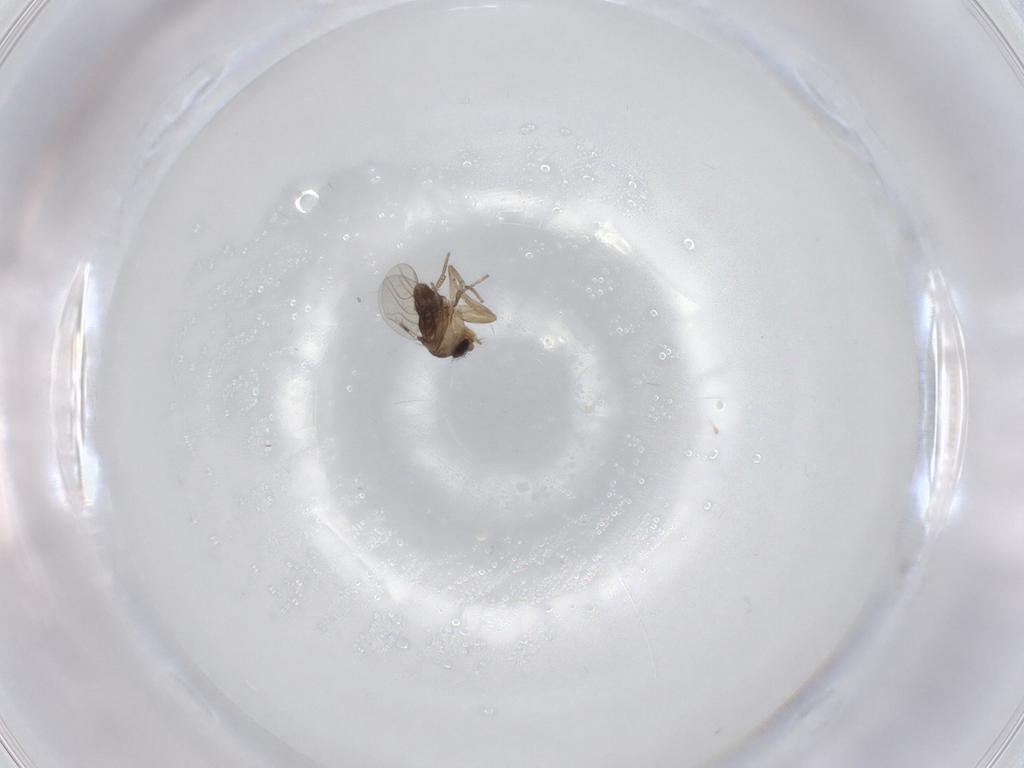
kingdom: Animalia
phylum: Arthropoda
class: Insecta
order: Diptera
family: Phoridae
